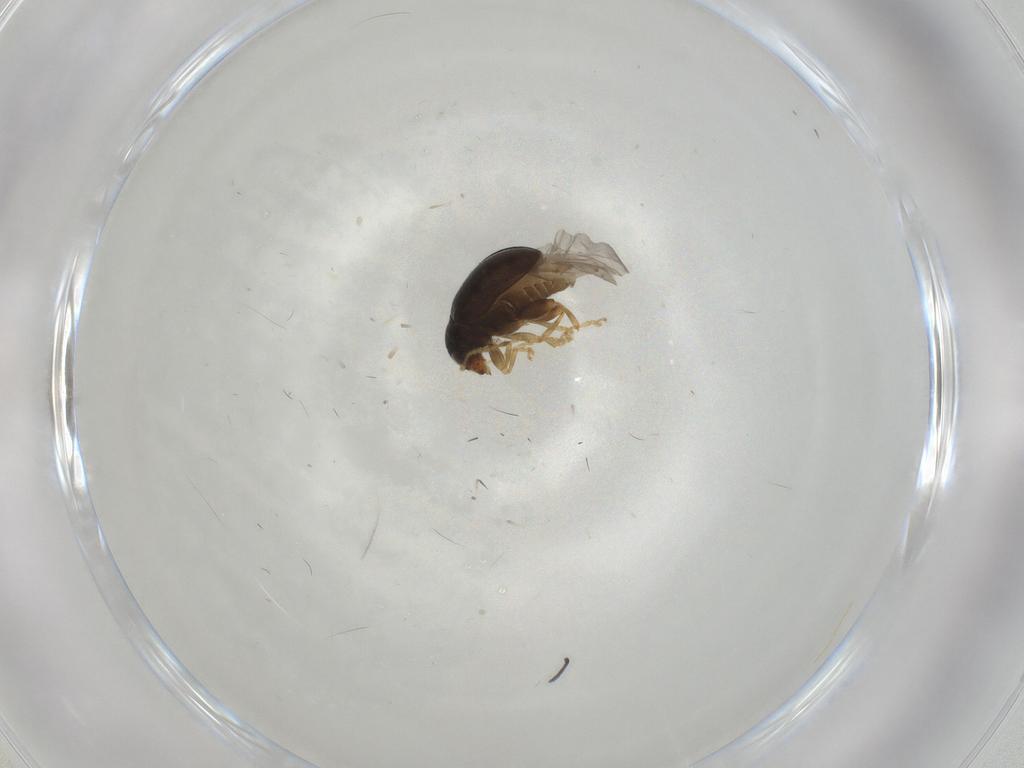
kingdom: Animalia
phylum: Arthropoda
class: Insecta
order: Coleoptera
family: Chrysomelidae
